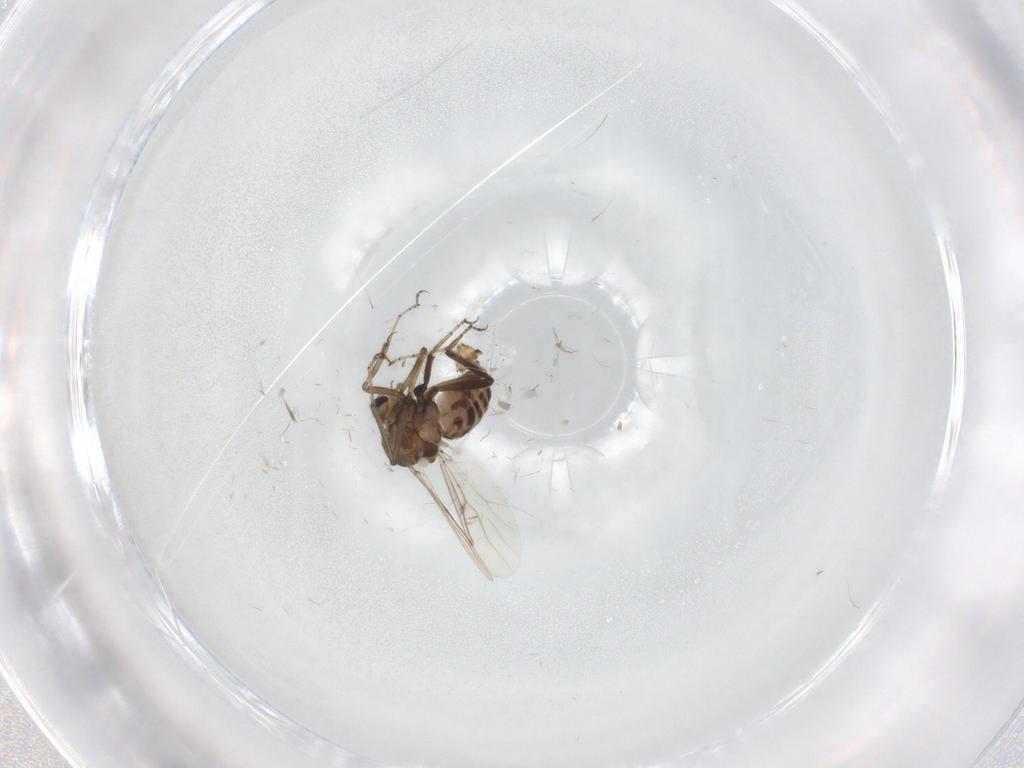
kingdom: Animalia
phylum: Arthropoda
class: Insecta
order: Diptera
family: Ceratopogonidae
